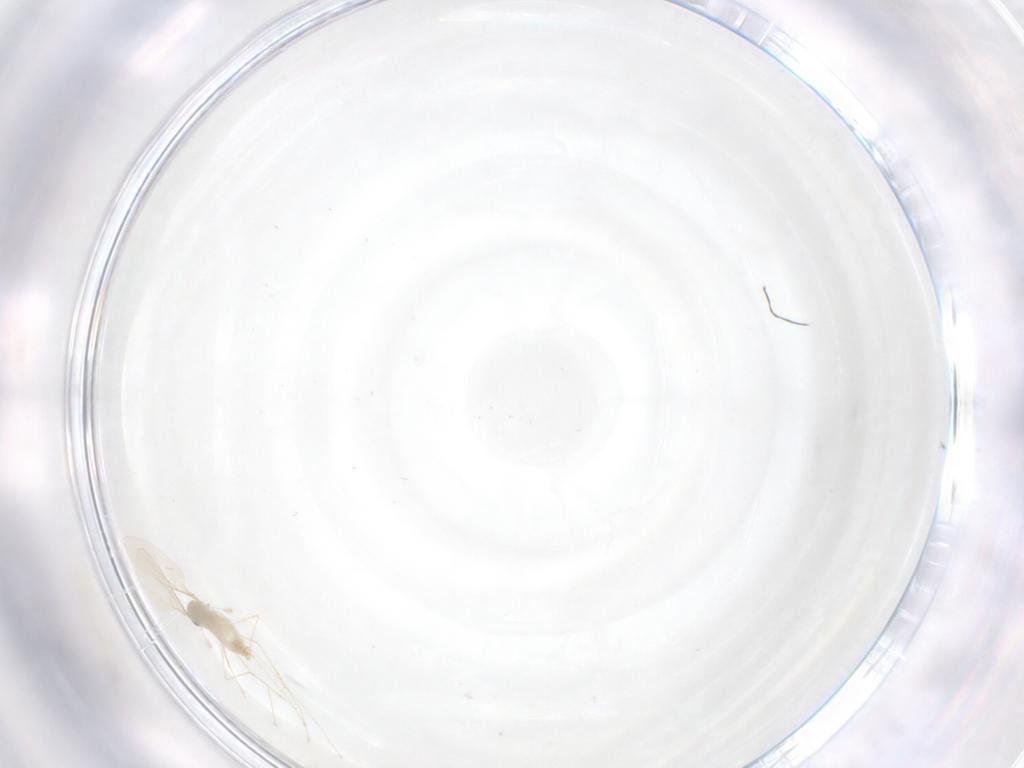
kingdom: Animalia
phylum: Arthropoda
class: Insecta
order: Diptera
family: Cecidomyiidae
